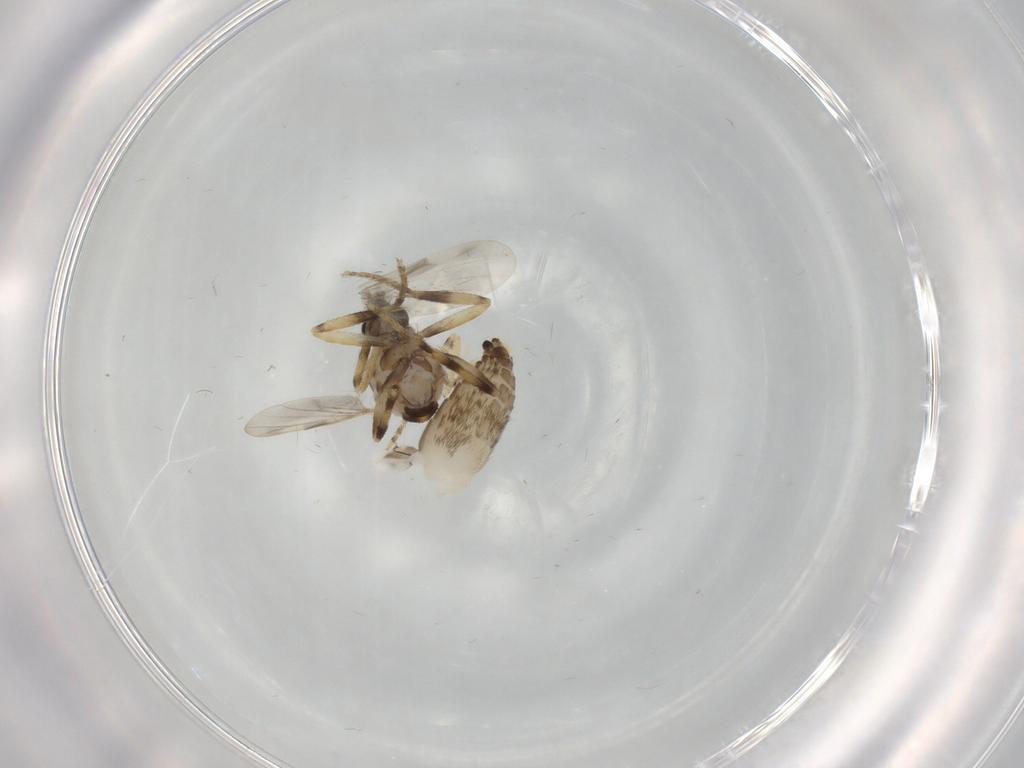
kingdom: Animalia
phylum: Arthropoda
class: Insecta
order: Diptera
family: Ceratopogonidae
